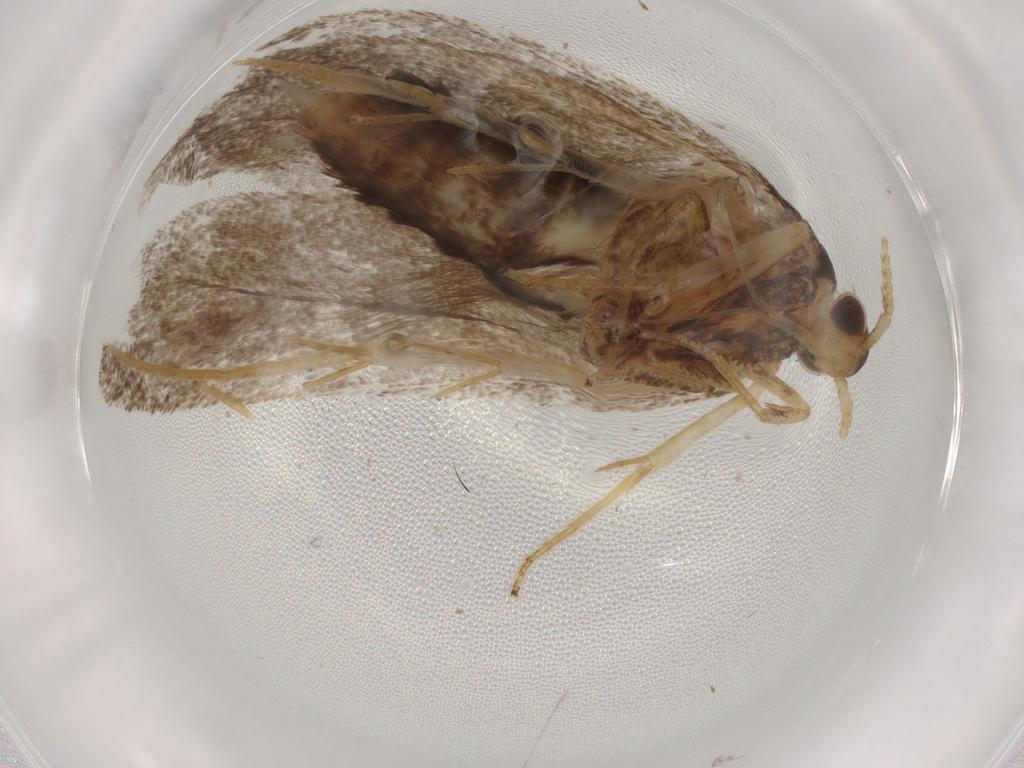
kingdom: Animalia
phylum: Arthropoda
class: Insecta
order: Lepidoptera
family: Lecithoceridae
